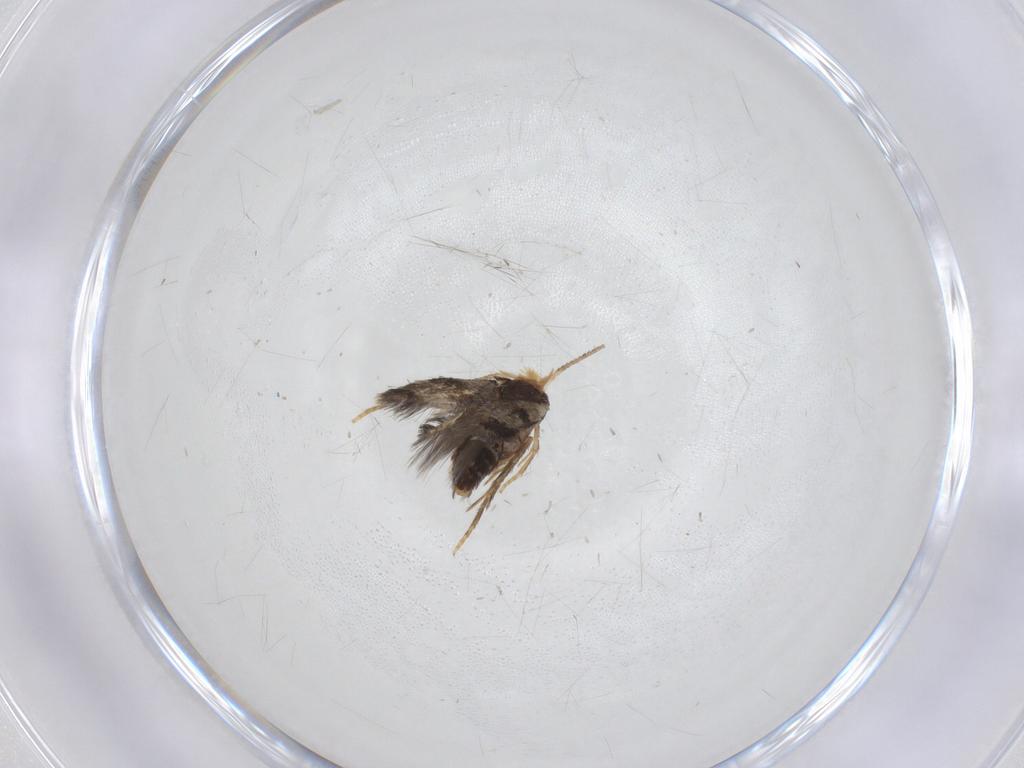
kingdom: Animalia
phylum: Arthropoda
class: Insecta
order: Lepidoptera
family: Nepticulidae
